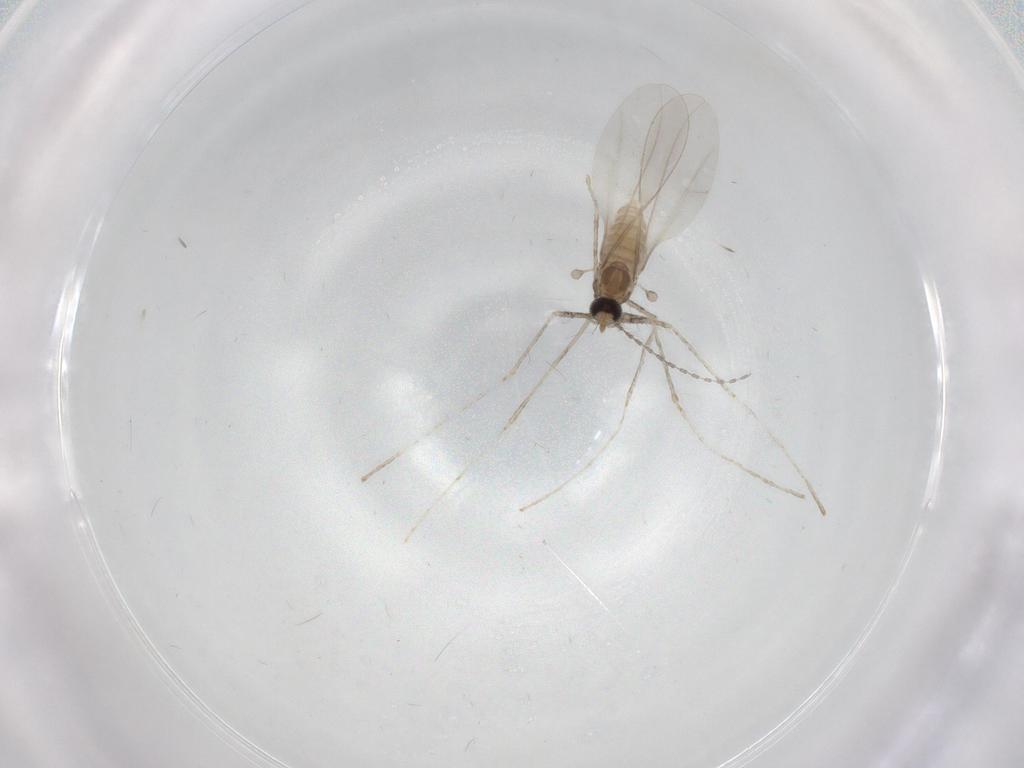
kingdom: Animalia
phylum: Arthropoda
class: Insecta
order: Diptera
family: Cecidomyiidae
